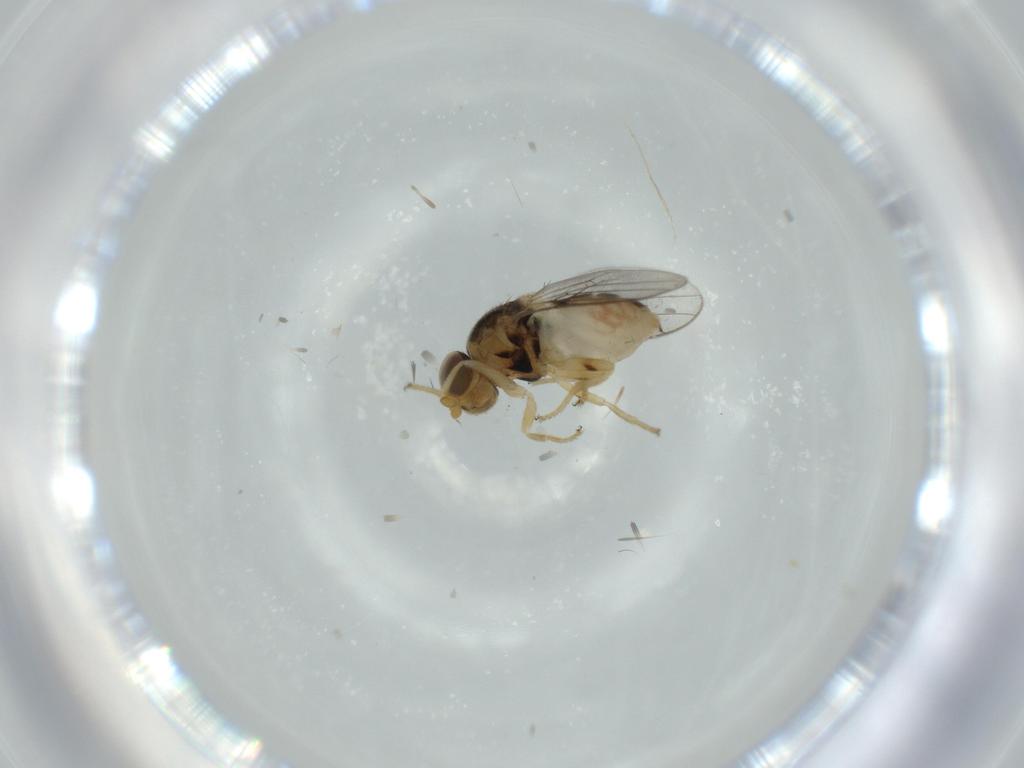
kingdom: Animalia
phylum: Arthropoda
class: Insecta
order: Diptera
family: Chloropidae
